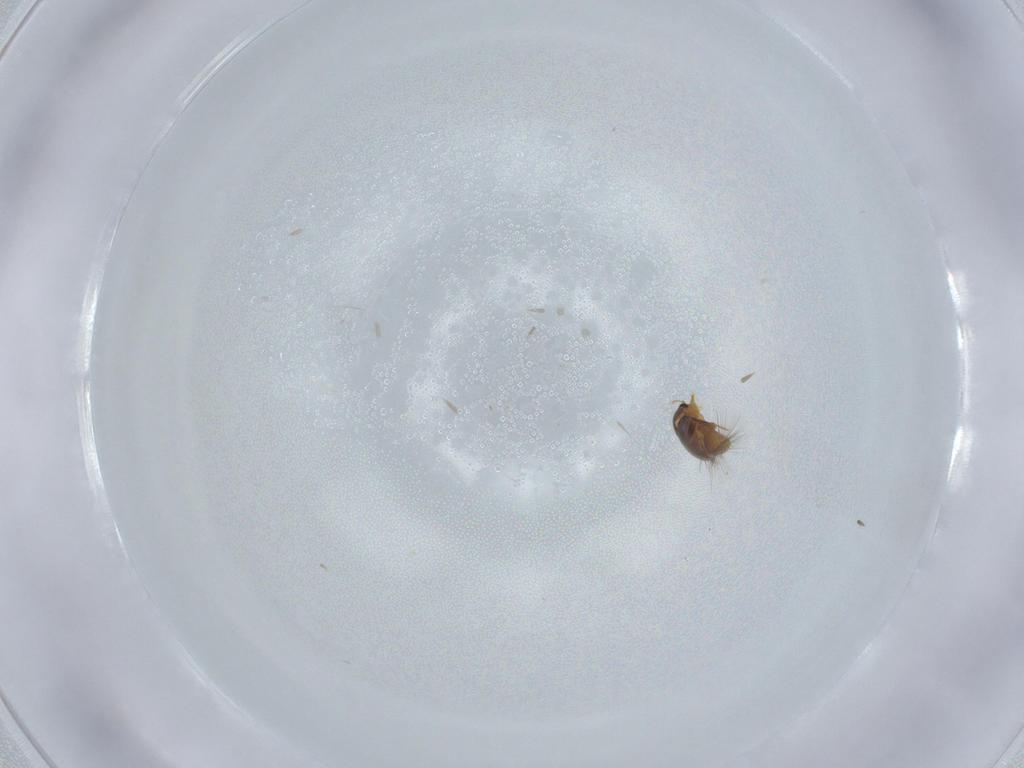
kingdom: Animalia
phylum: Arthropoda
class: Insecta
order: Coleoptera
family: Ptiliidae
